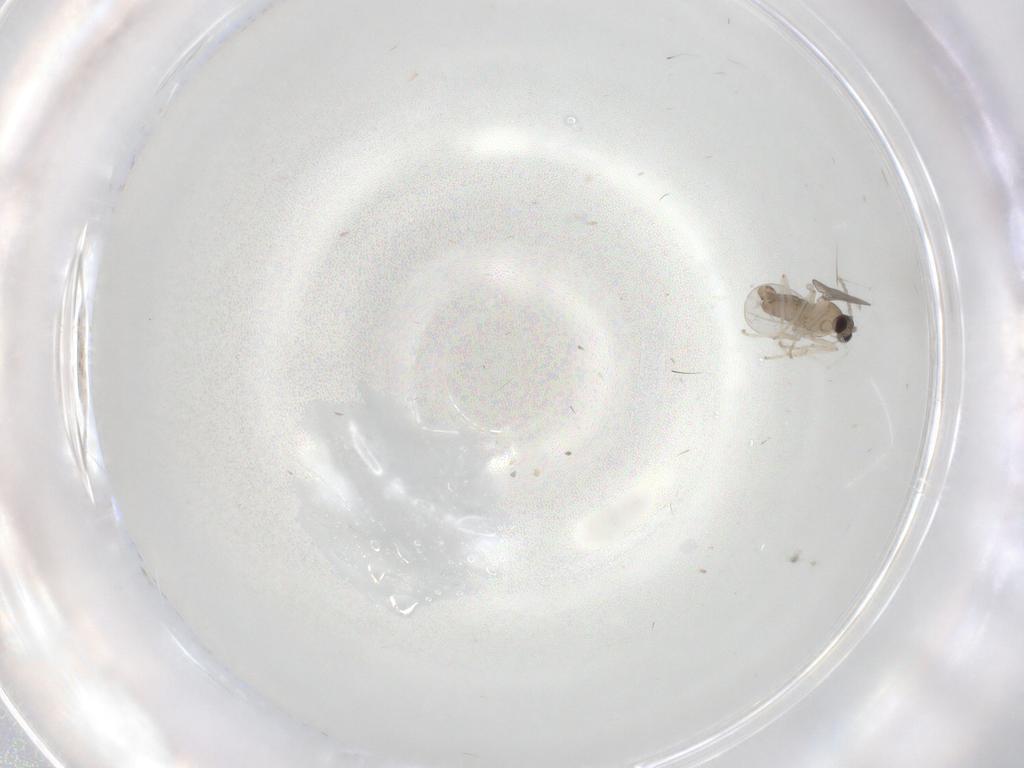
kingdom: Animalia
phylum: Arthropoda
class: Insecta
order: Diptera
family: Cecidomyiidae
